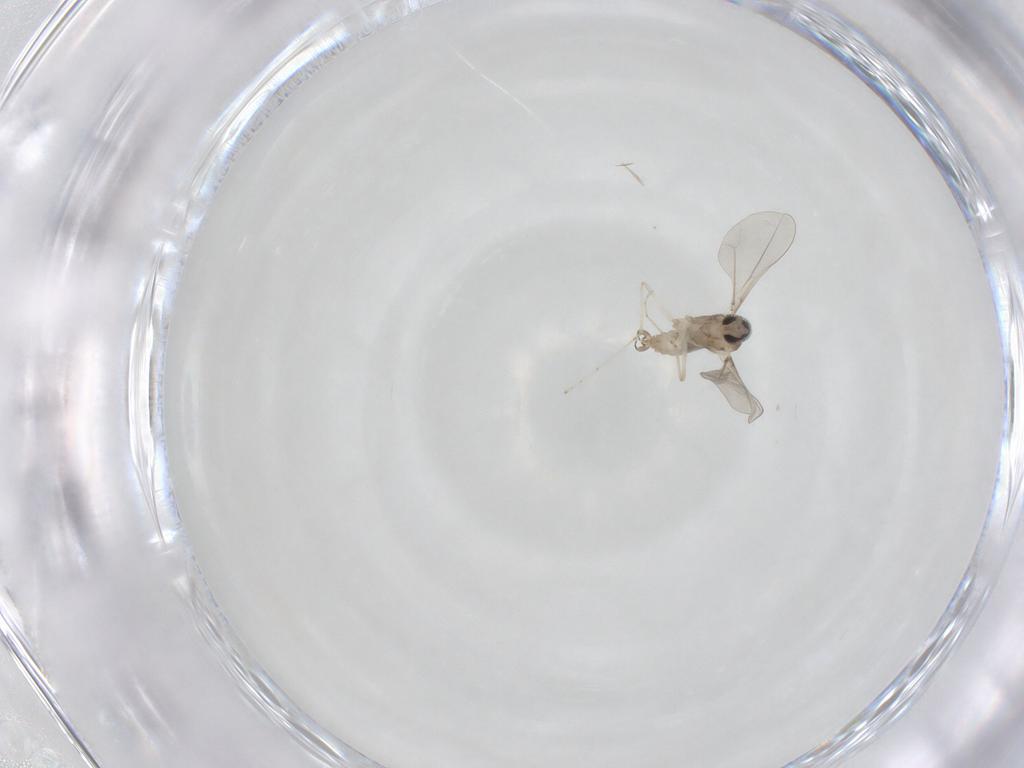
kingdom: Animalia
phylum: Arthropoda
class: Insecta
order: Diptera
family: Cecidomyiidae
